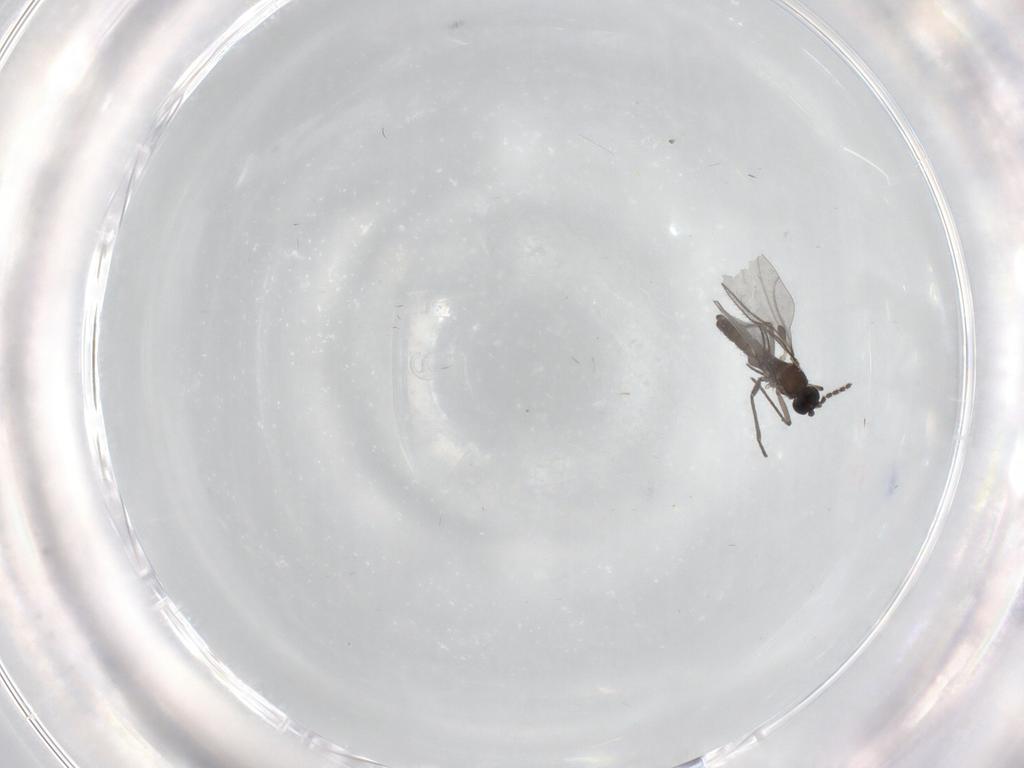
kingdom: Animalia
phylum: Arthropoda
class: Insecta
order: Diptera
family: Sciaridae
